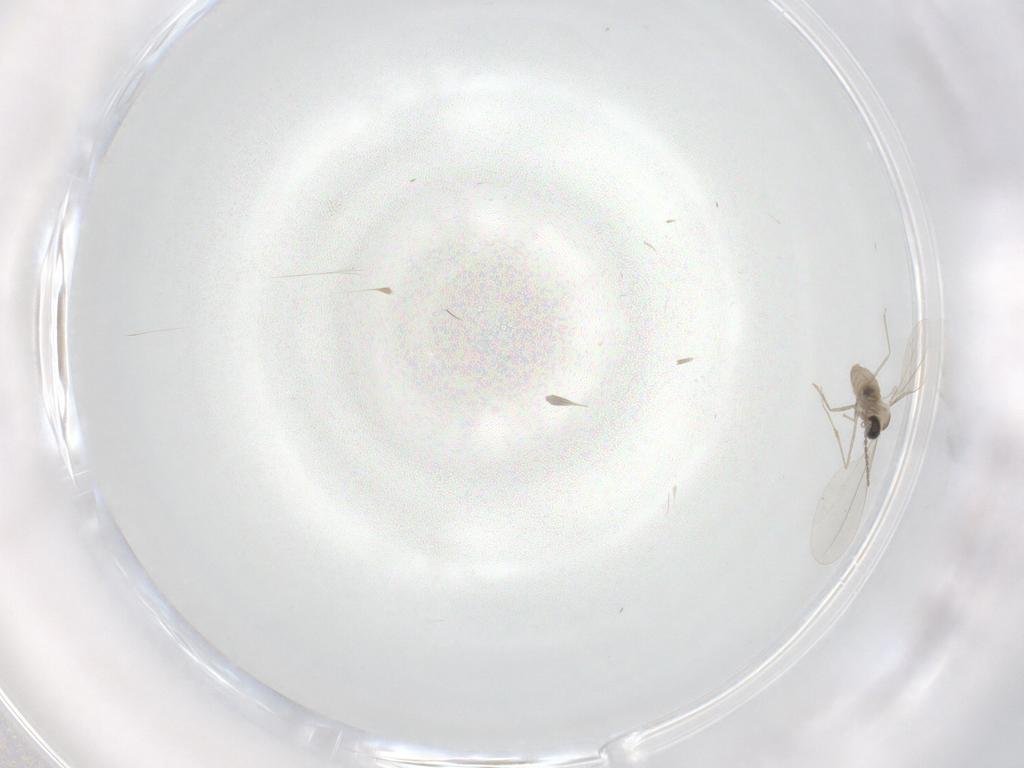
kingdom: Animalia
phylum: Arthropoda
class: Insecta
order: Diptera
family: Cecidomyiidae
